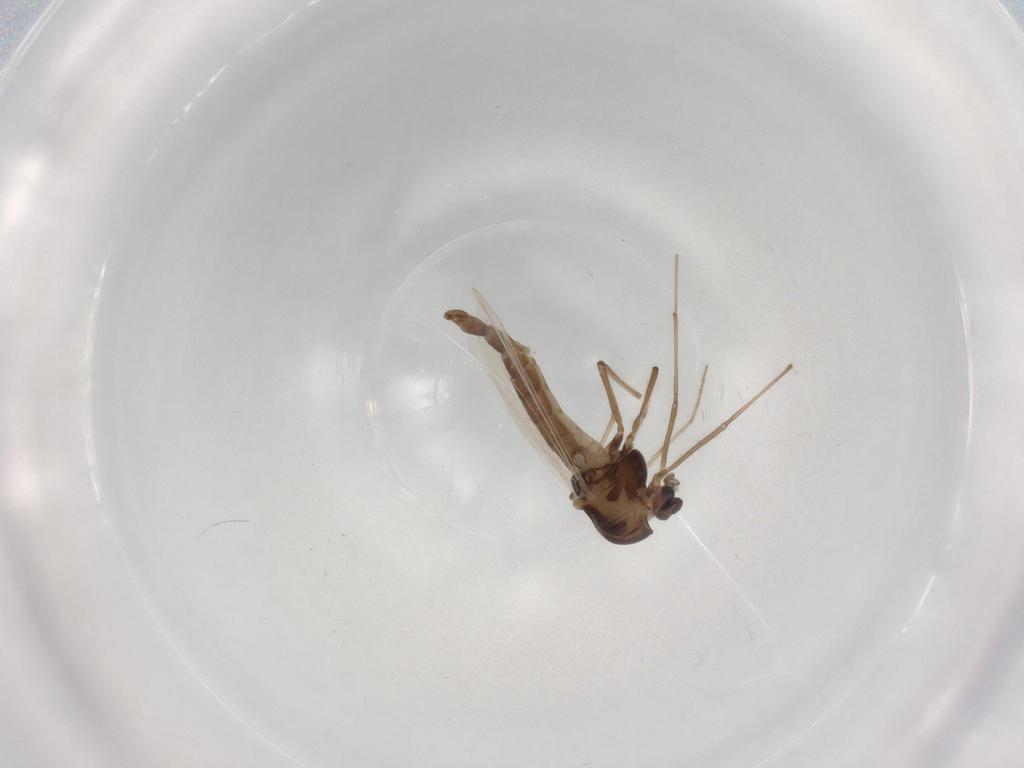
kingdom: Animalia
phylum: Arthropoda
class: Insecta
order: Diptera
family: Chironomidae
